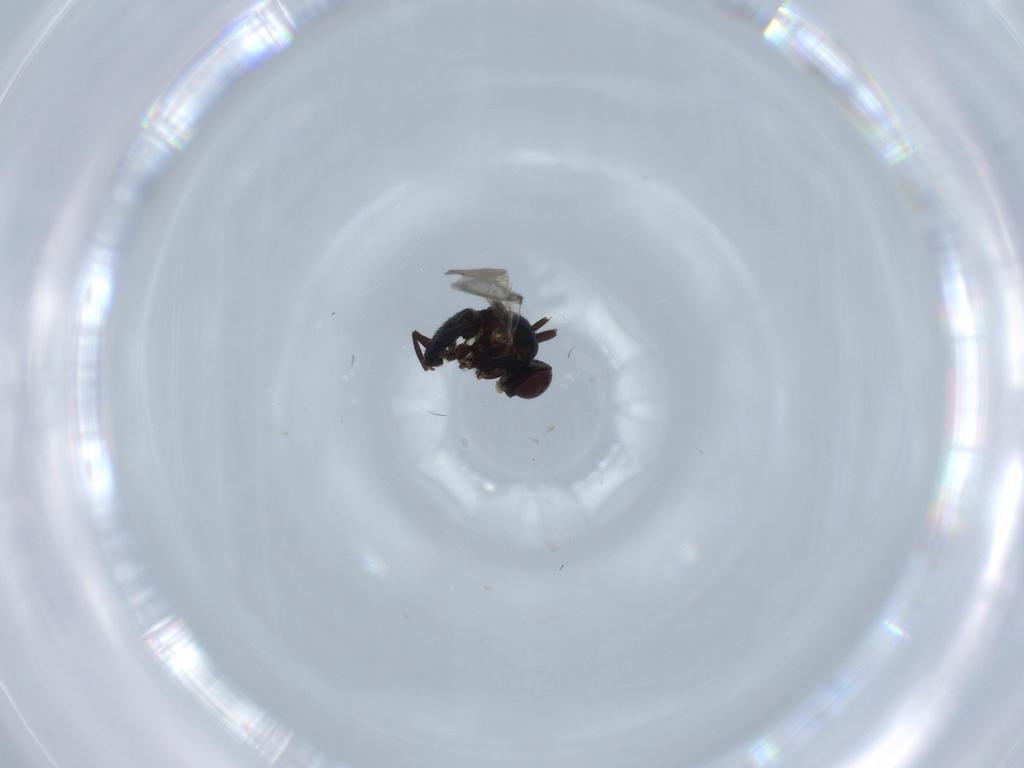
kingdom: Animalia
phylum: Arthropoda
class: Insecta
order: Diptera
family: Agromyzidae
